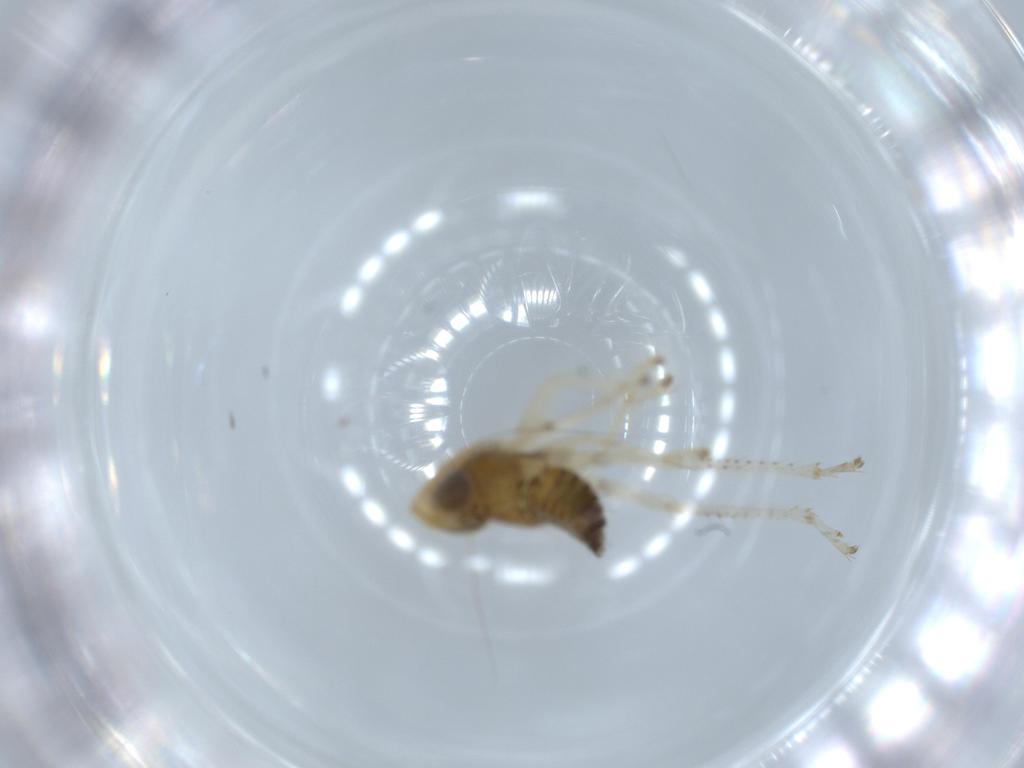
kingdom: Animalia
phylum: Arthropoda
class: Insecta
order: Hemiptera
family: Cicadellidae
